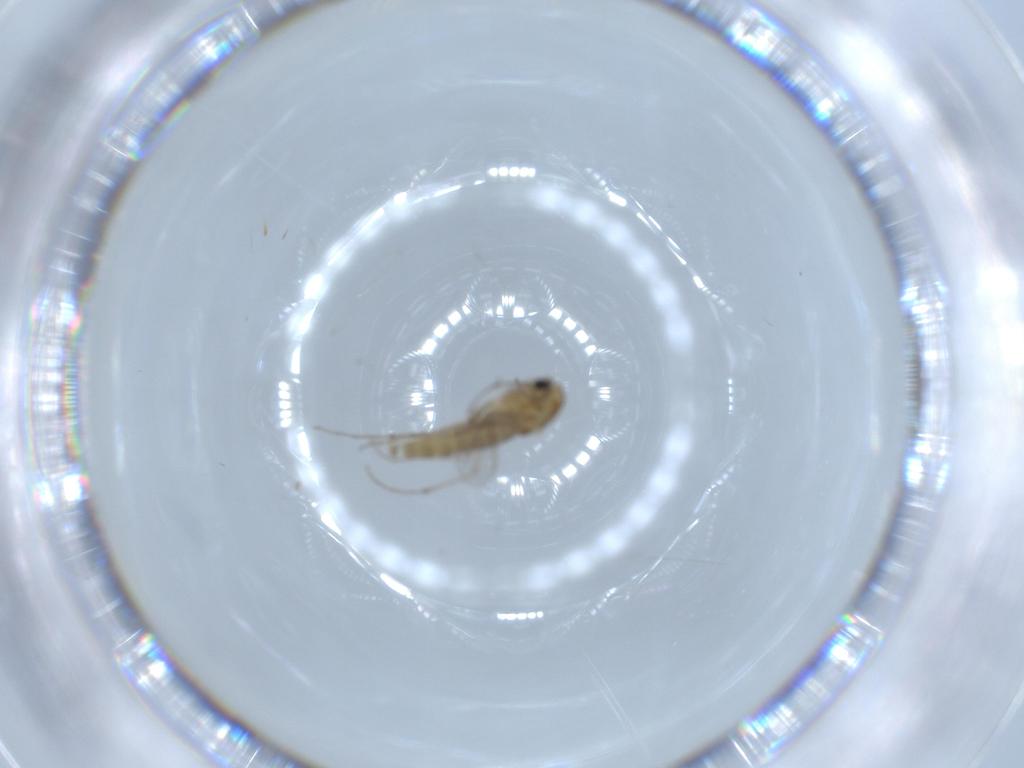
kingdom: Animalia
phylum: Arthropoda
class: Insecta
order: Diptera
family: Chironomidae
